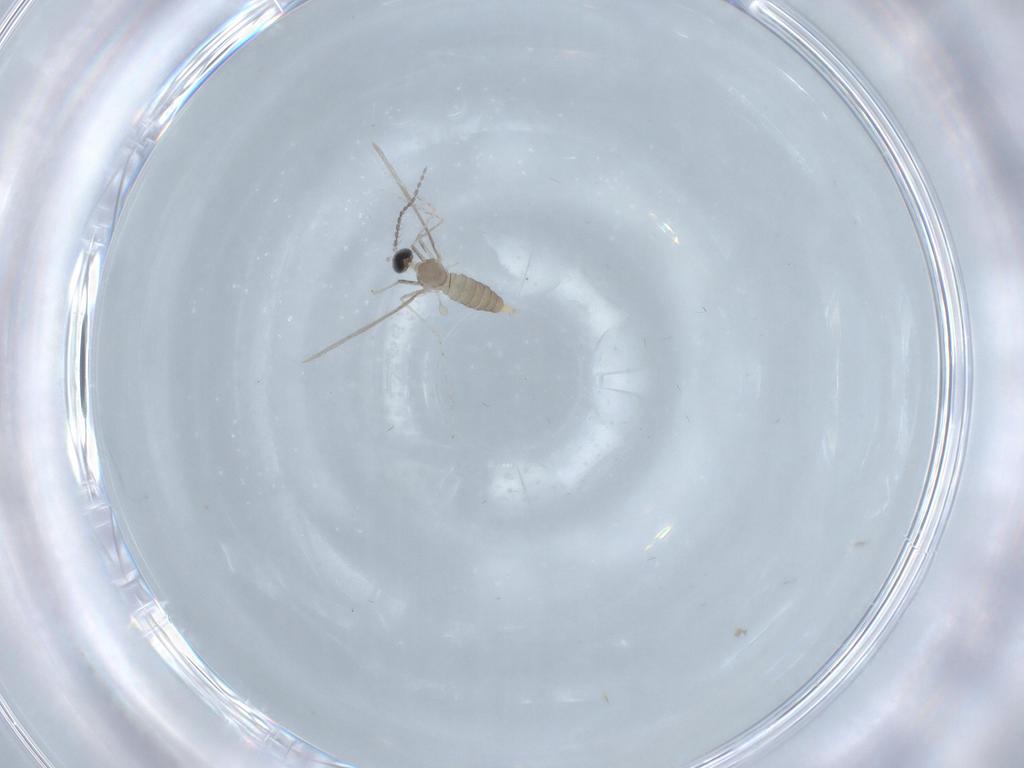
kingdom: Animalia
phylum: Arthropoda
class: Insecta
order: Diptera
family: Cecidomyiidae
